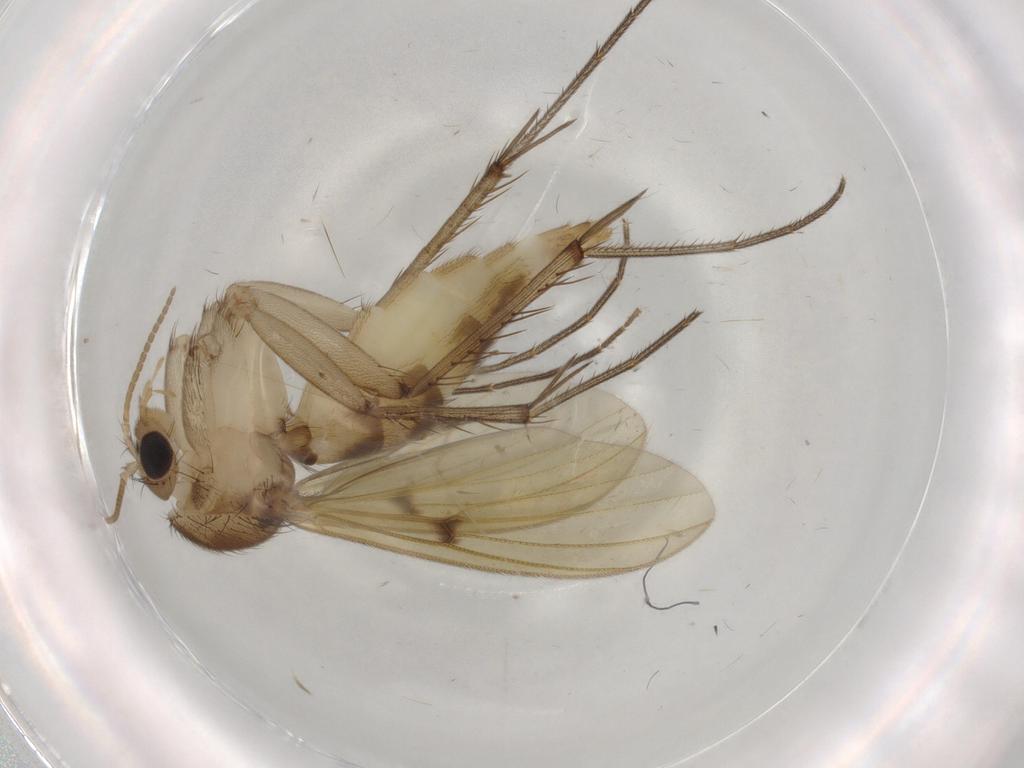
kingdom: Animalia
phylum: Arthropoda
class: Insecta
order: Diptera
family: Mycetophilidae
